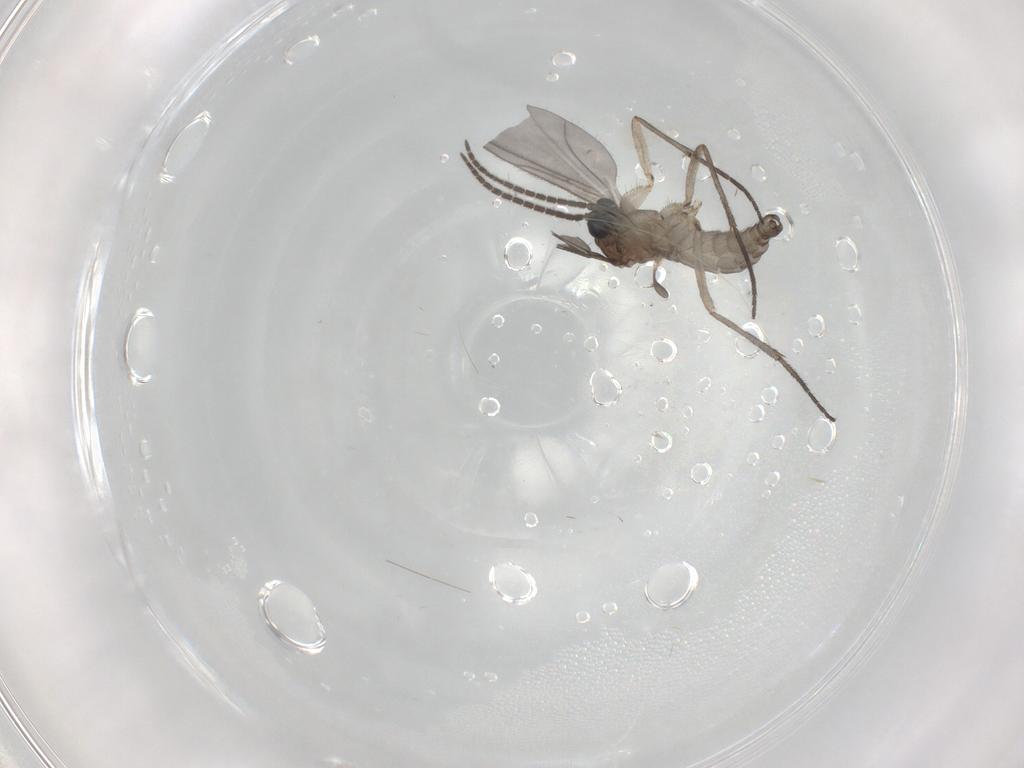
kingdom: Animalia
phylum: Arthropoda
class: Insecta
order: Diptera
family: Sciaridae
